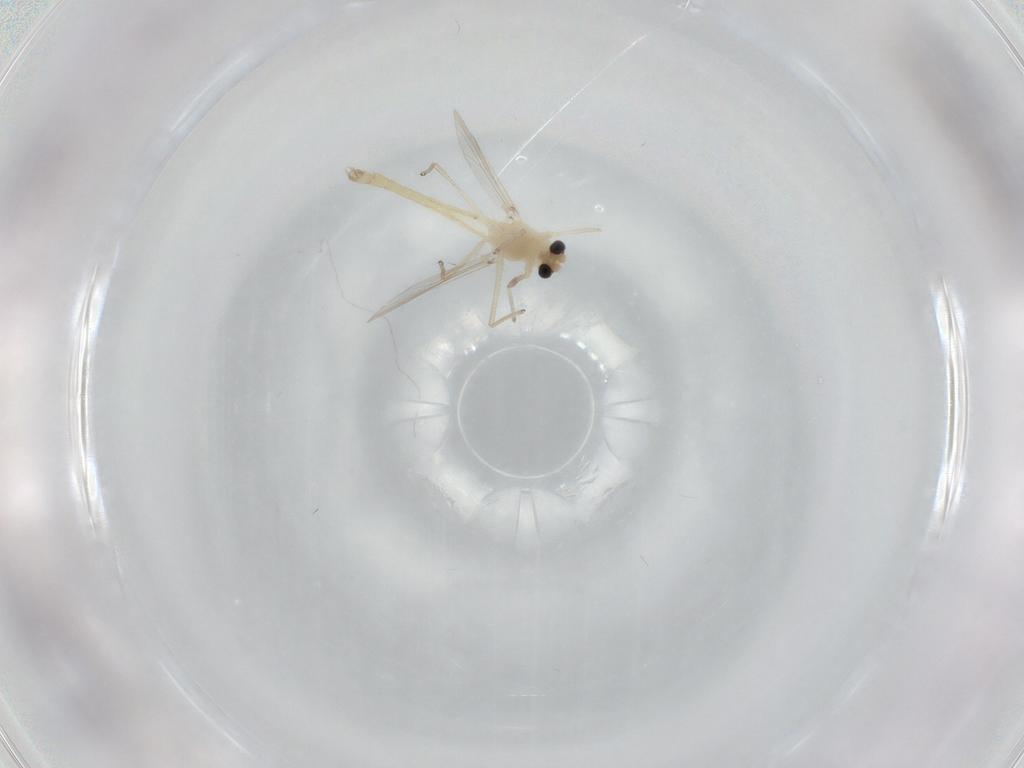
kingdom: Animalia
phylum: Arthropoda
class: Insecta
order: Diptera
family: Chironomidae
